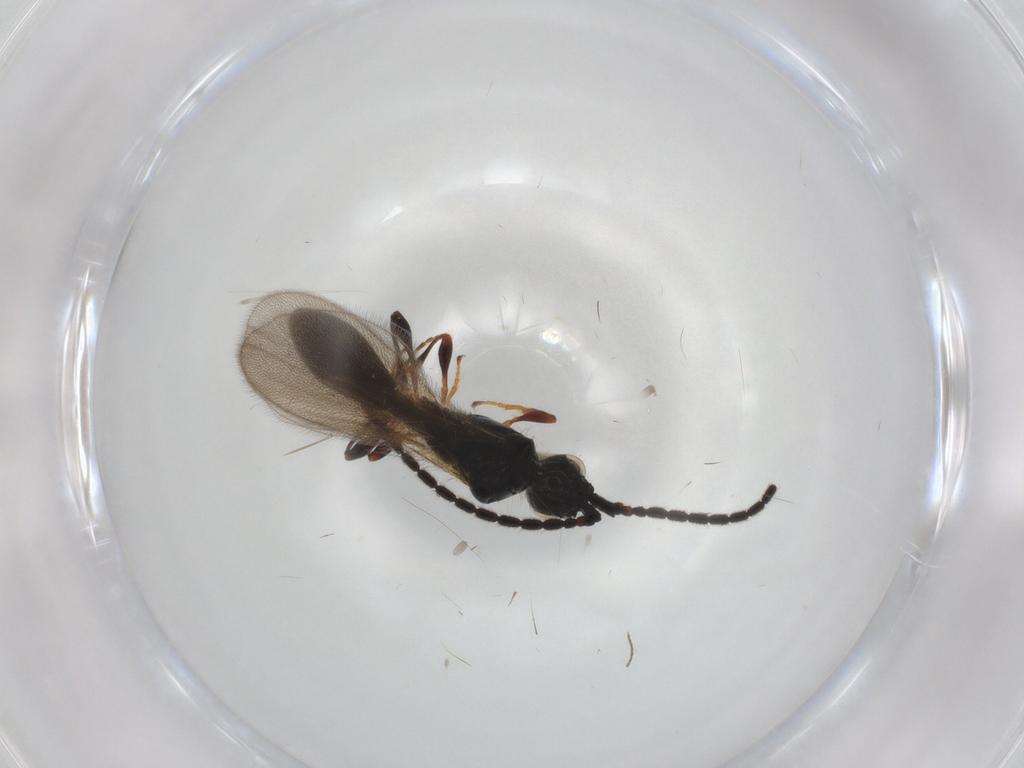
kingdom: Animalia
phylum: Arthropoda
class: Insecta
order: Hymenoptera
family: Formicidae
